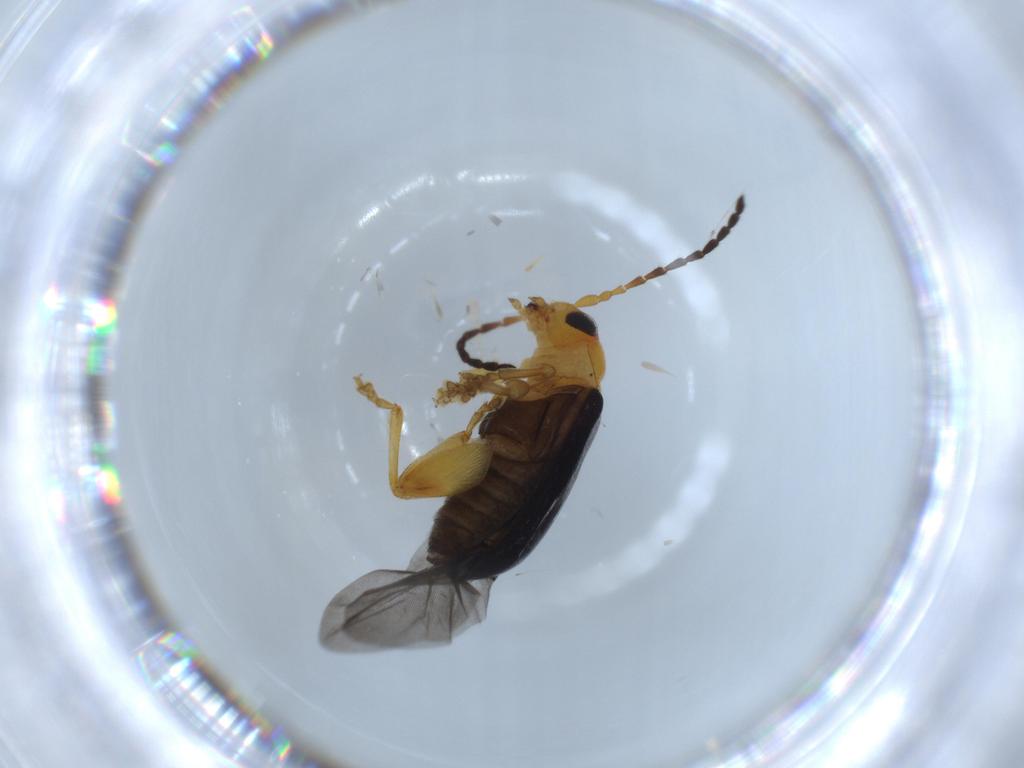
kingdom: Animalia
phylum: Arthropoda
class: Insecta
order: Coleoptera
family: Chrysomelidae
